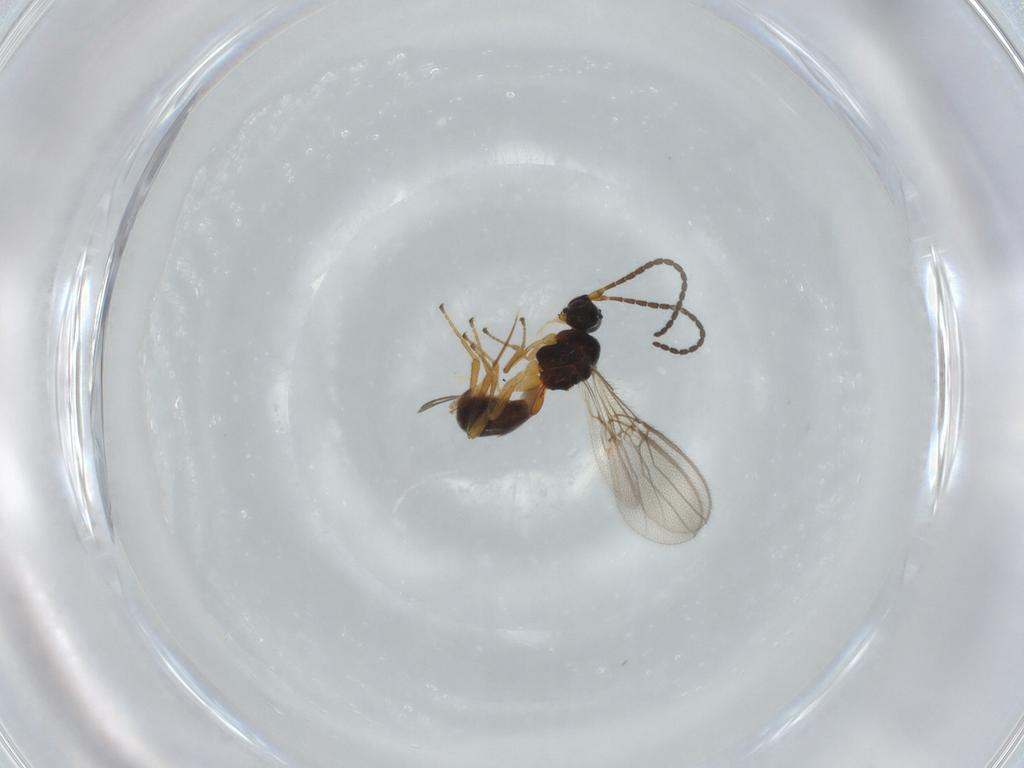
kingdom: Animalia
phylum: Arthropoda
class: Insecta
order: Hymenoptera
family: Braconidae
